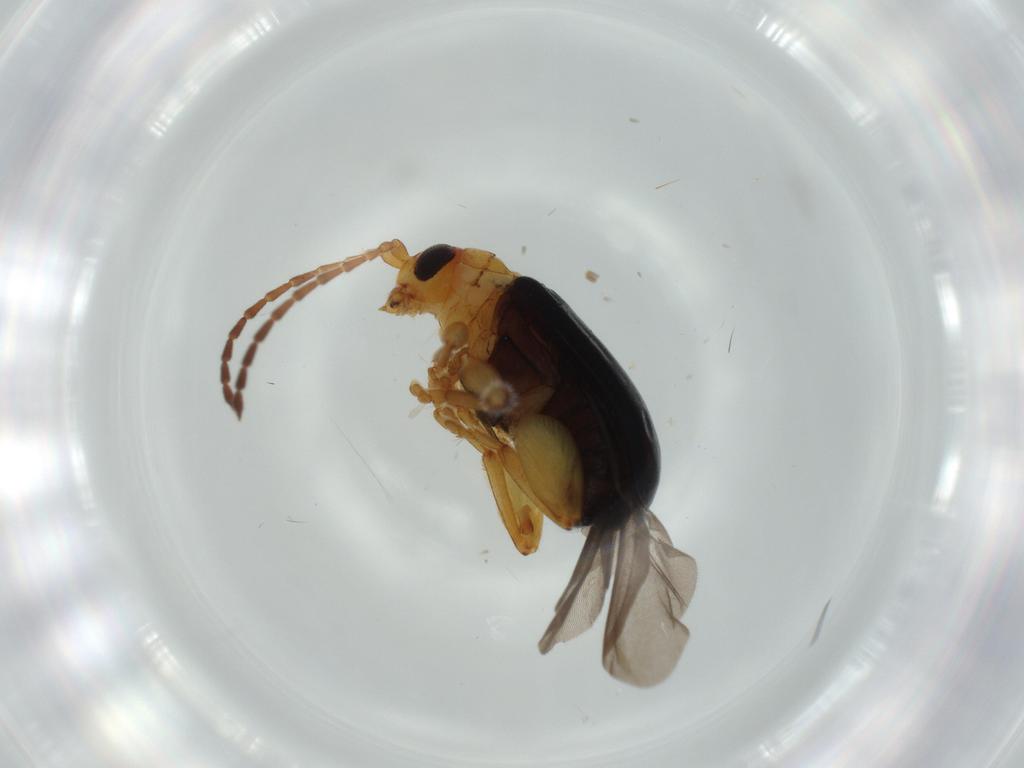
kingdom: Animalia
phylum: Arthropoda
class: Insecta
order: Coleoptera
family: Chrysomelidae
